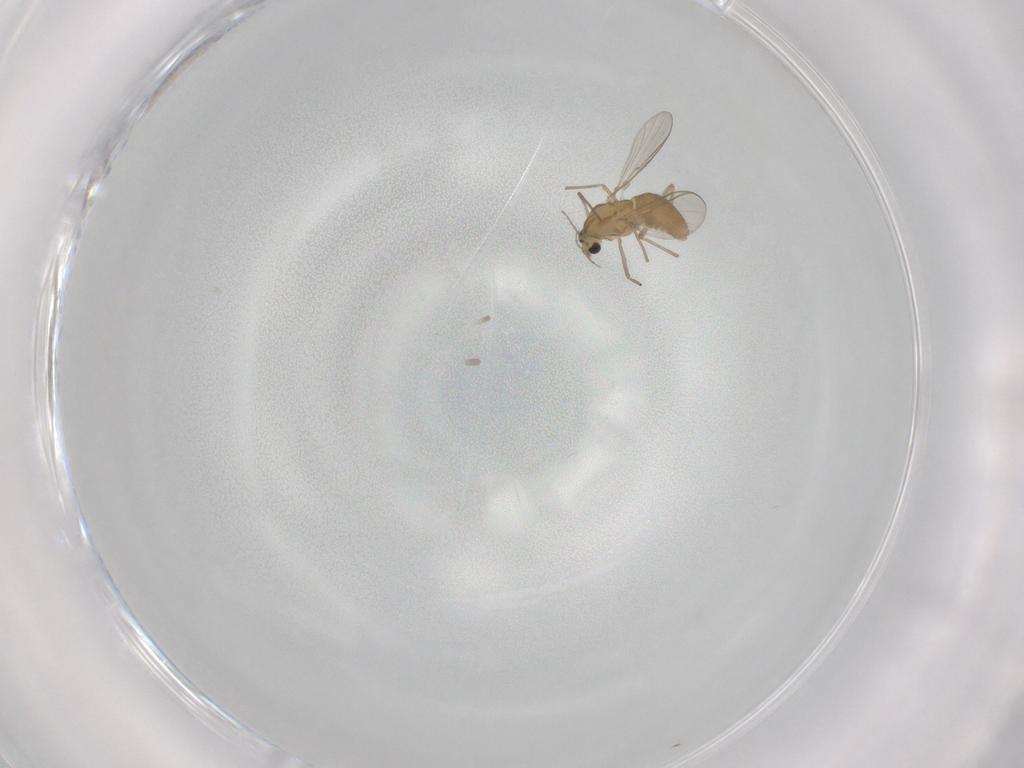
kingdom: Animalia
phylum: Arthropoda
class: Insecta
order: Diptera
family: Chironomidae
